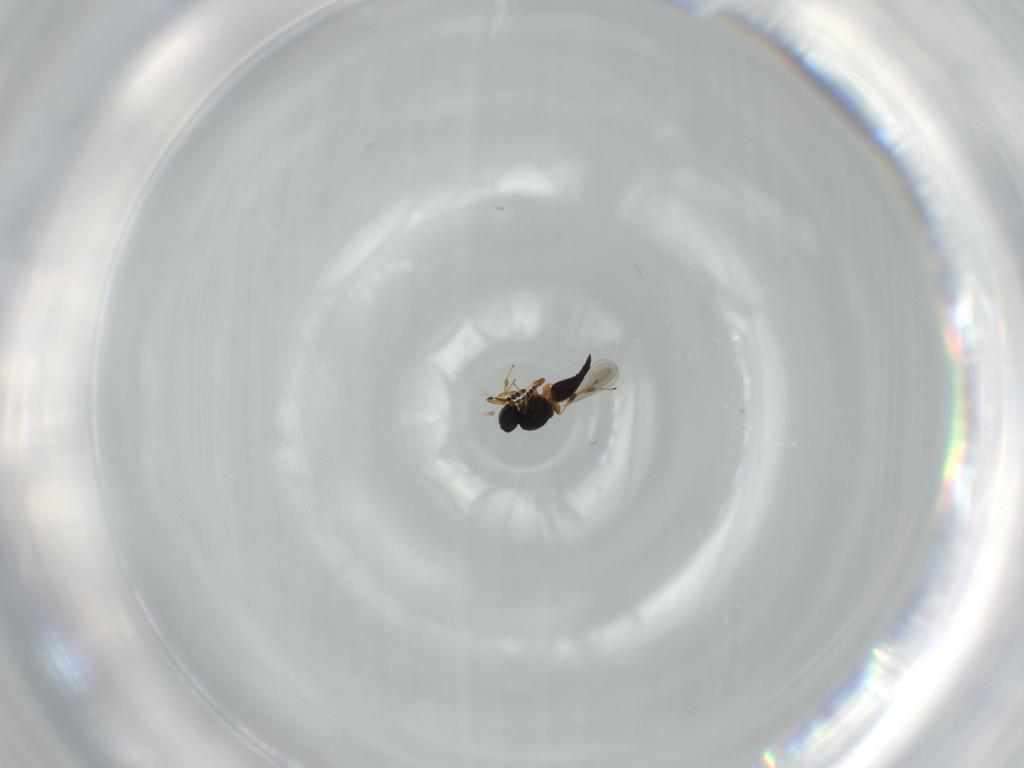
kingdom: Animalia
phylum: Arthropoda
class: Insecta
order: Hymenoptera
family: Platygastridae
